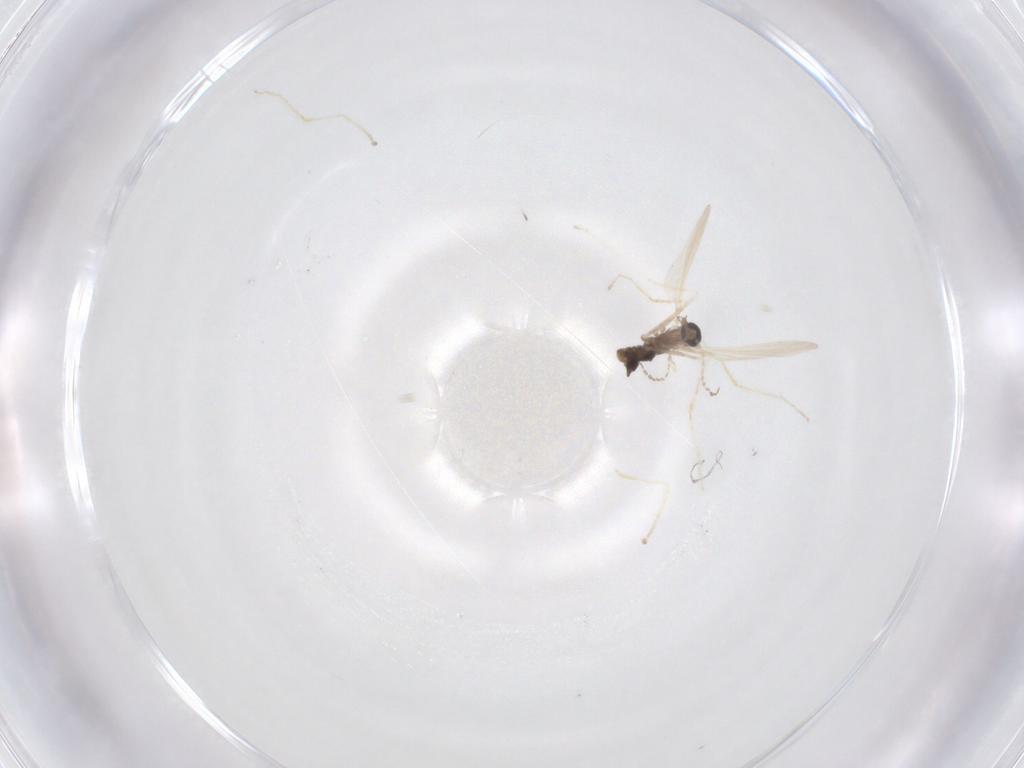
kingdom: Animalia
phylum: Arthropoda
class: Insecta
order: Diptera
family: Cecidomyiidae
